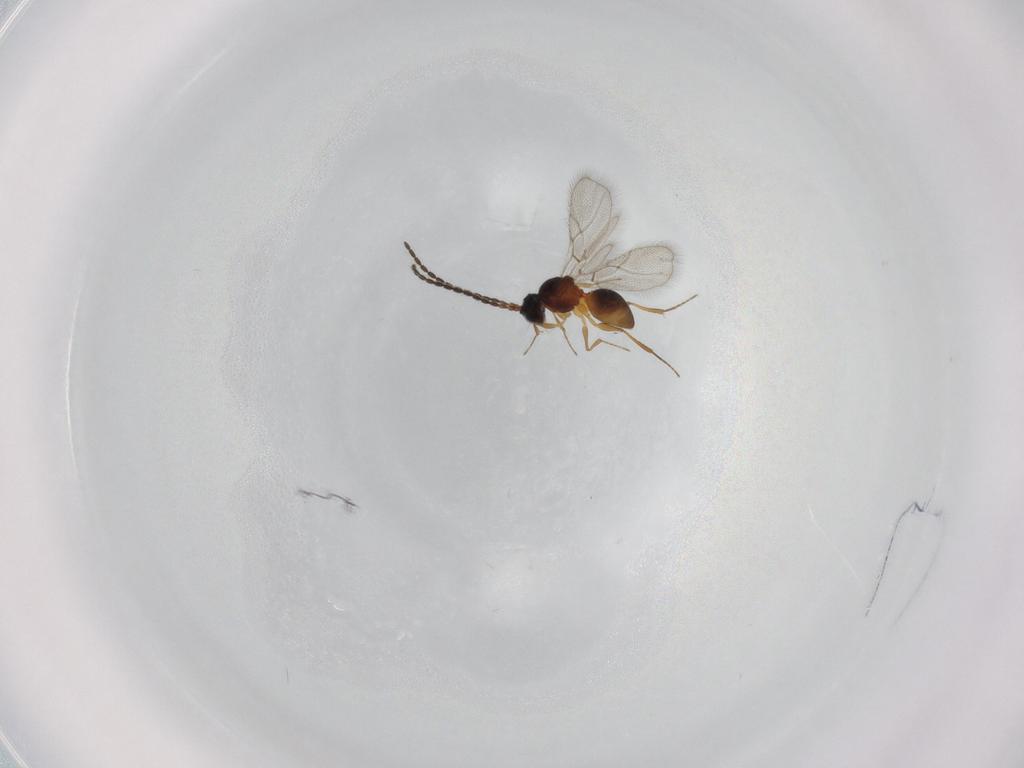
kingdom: Animalia
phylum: Arthropoda
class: Insecta
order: Hymenoptera
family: Figitidae
